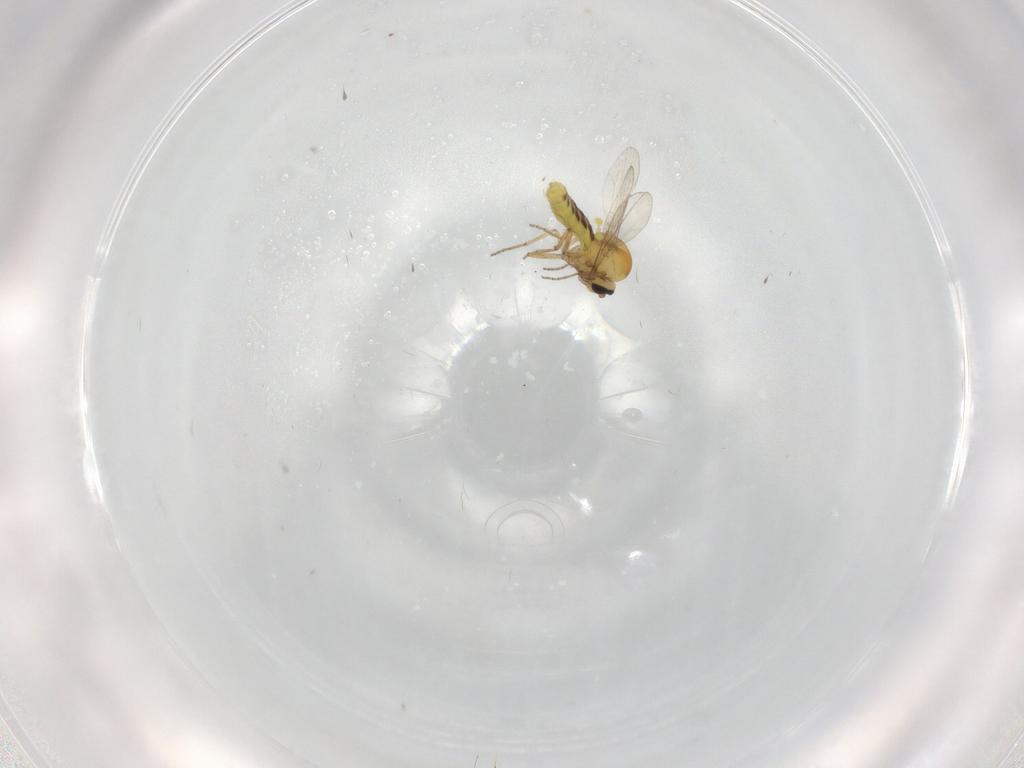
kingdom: Animalia
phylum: Arthropoda
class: Insecta
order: Diptera
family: Ceratopogonidae
